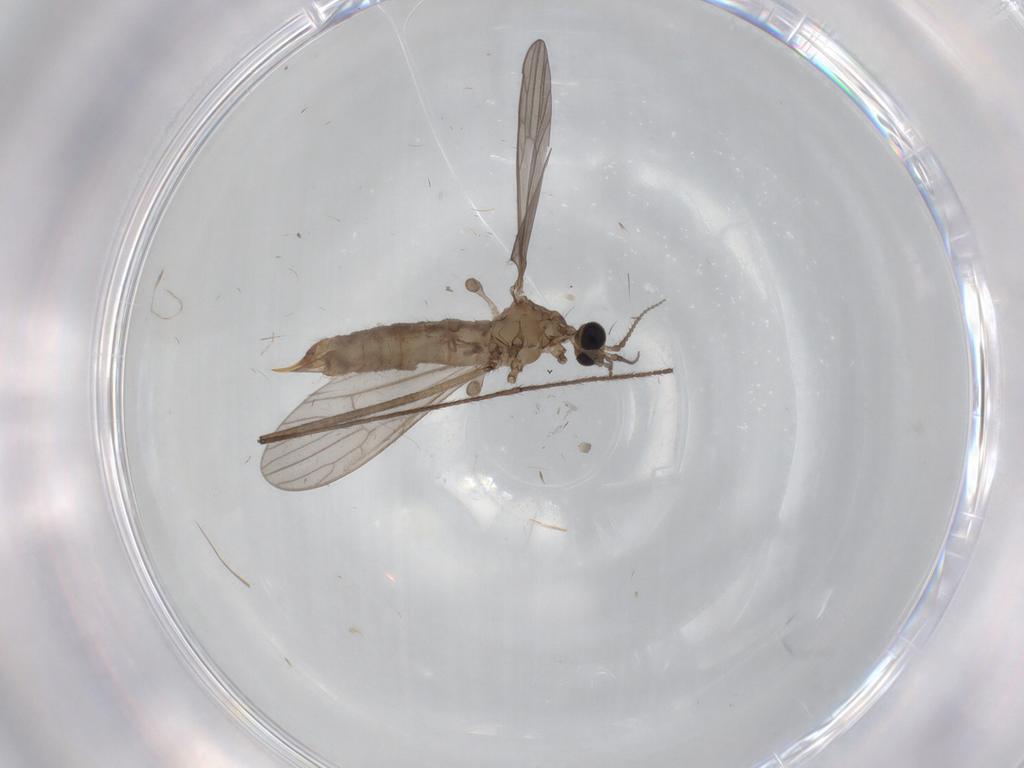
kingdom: Animalia
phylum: Arthropoda
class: Insecta
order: Diptera
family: Limoniidae
